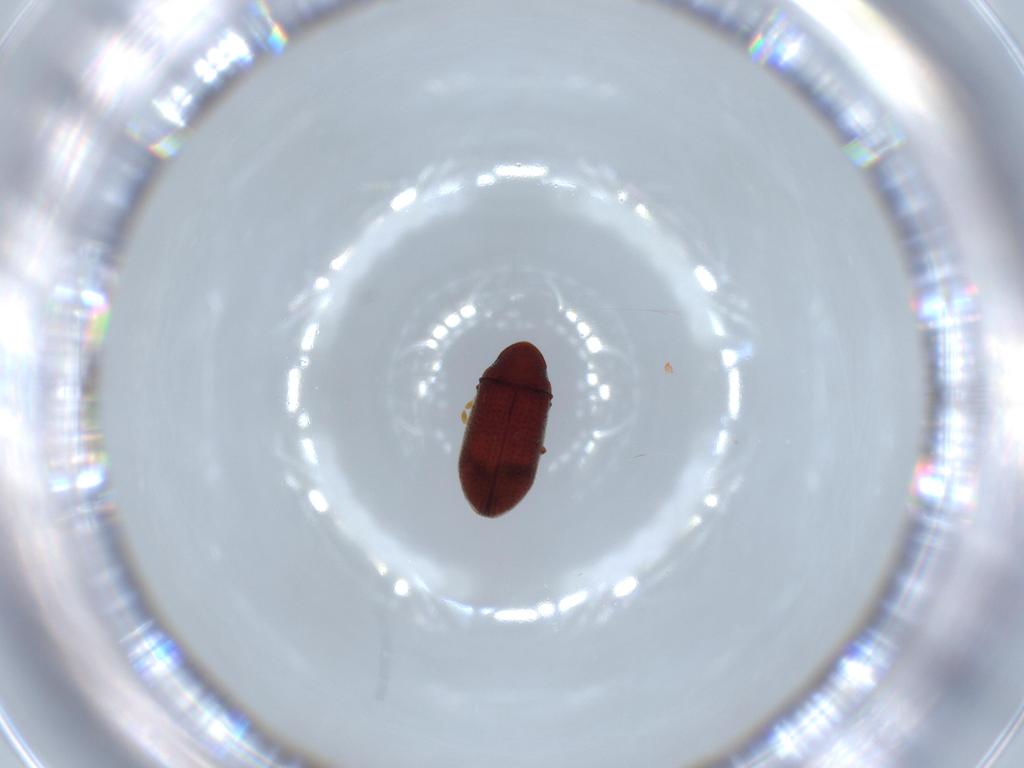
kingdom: Animalia
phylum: Arthropoda
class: Insecta
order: Coleoptera
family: Anobiidae
